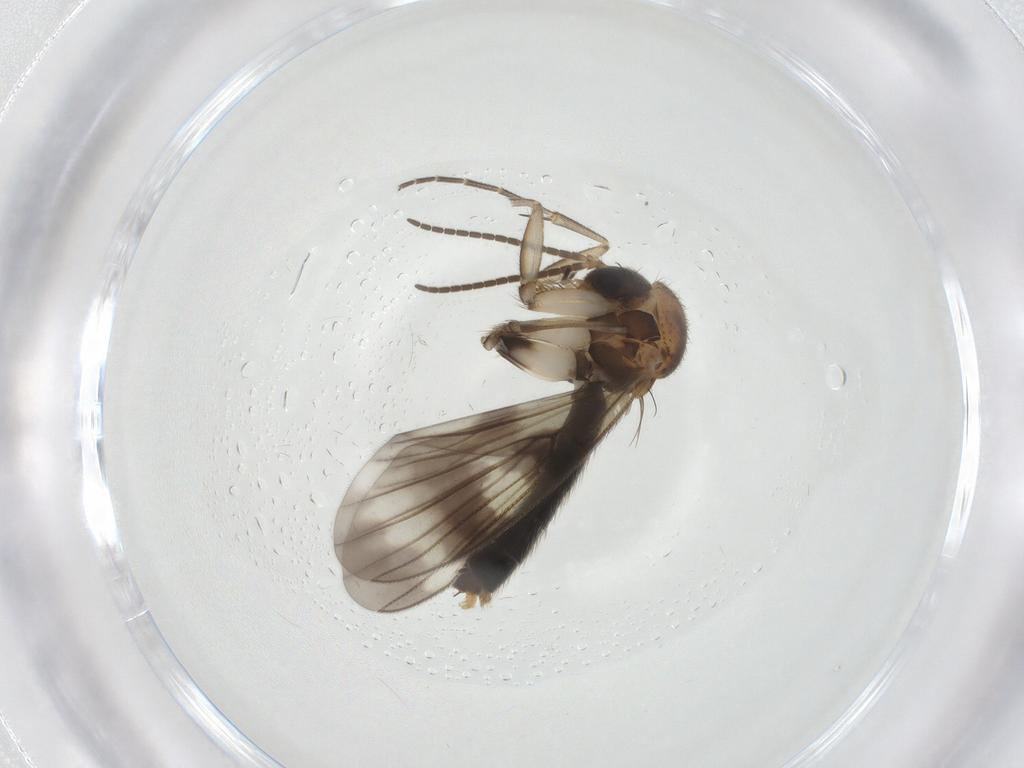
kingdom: Animalia
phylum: Arthropoda
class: Insecta
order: Diptera
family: Mycetophilidae
